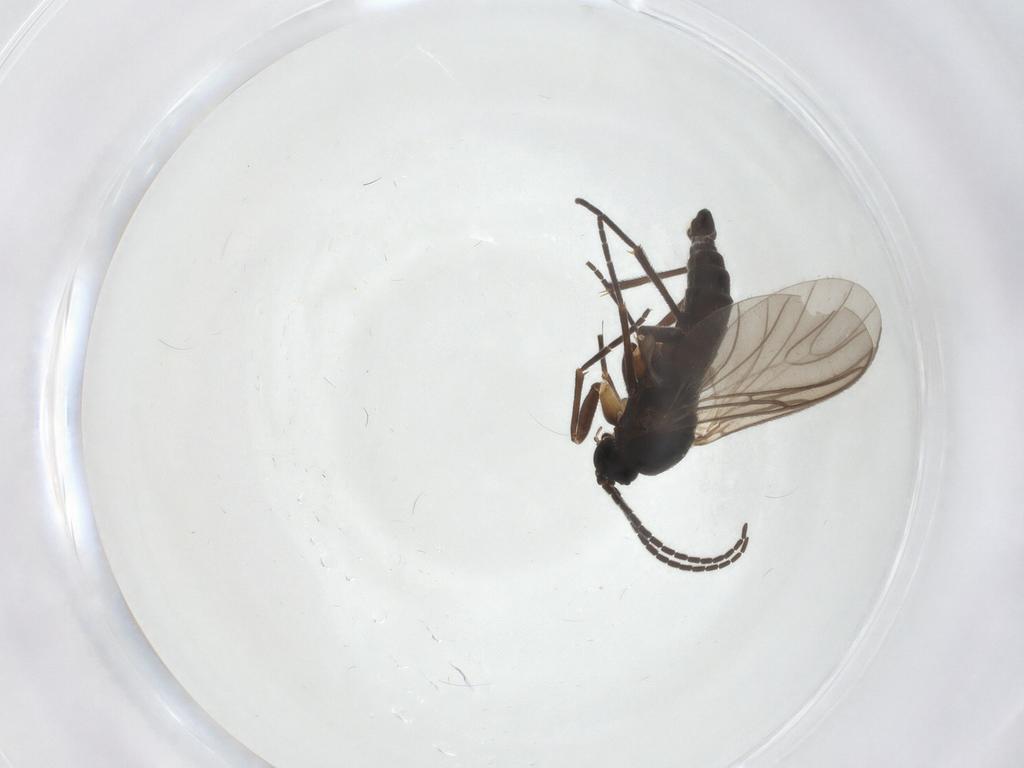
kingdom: Animalia
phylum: Arthropoda
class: Insecta
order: Diptera
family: Sciaridae
